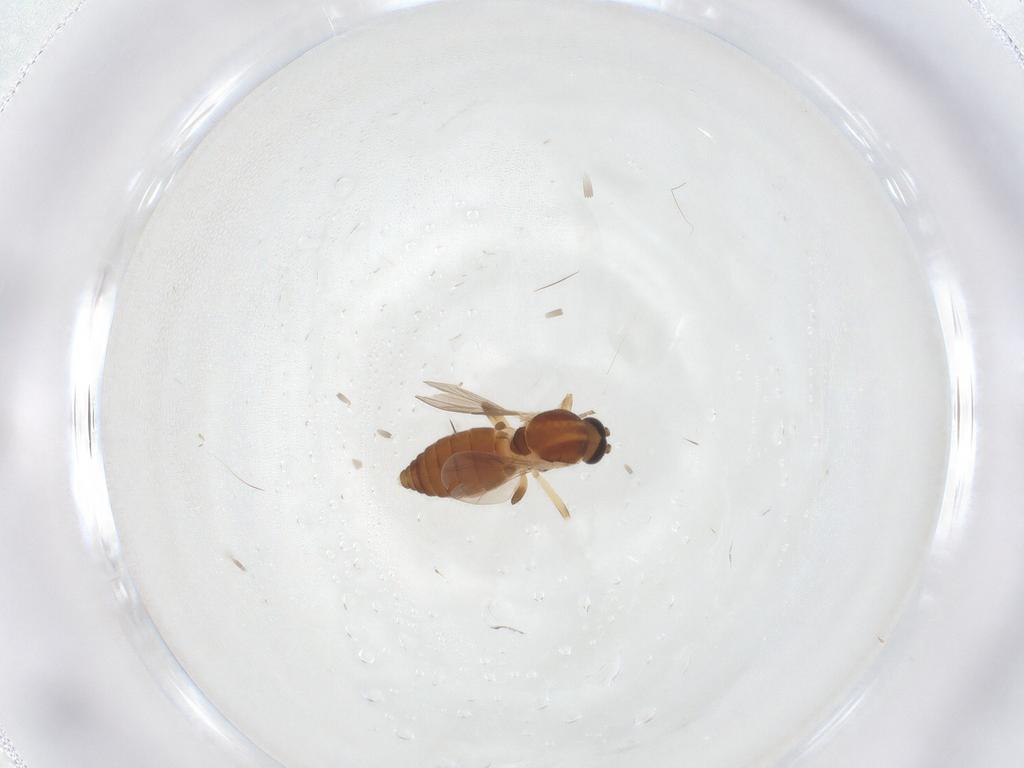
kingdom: Animalia
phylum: Arthropoda
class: Insecta
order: Diptera
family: Ceratopogonidae
